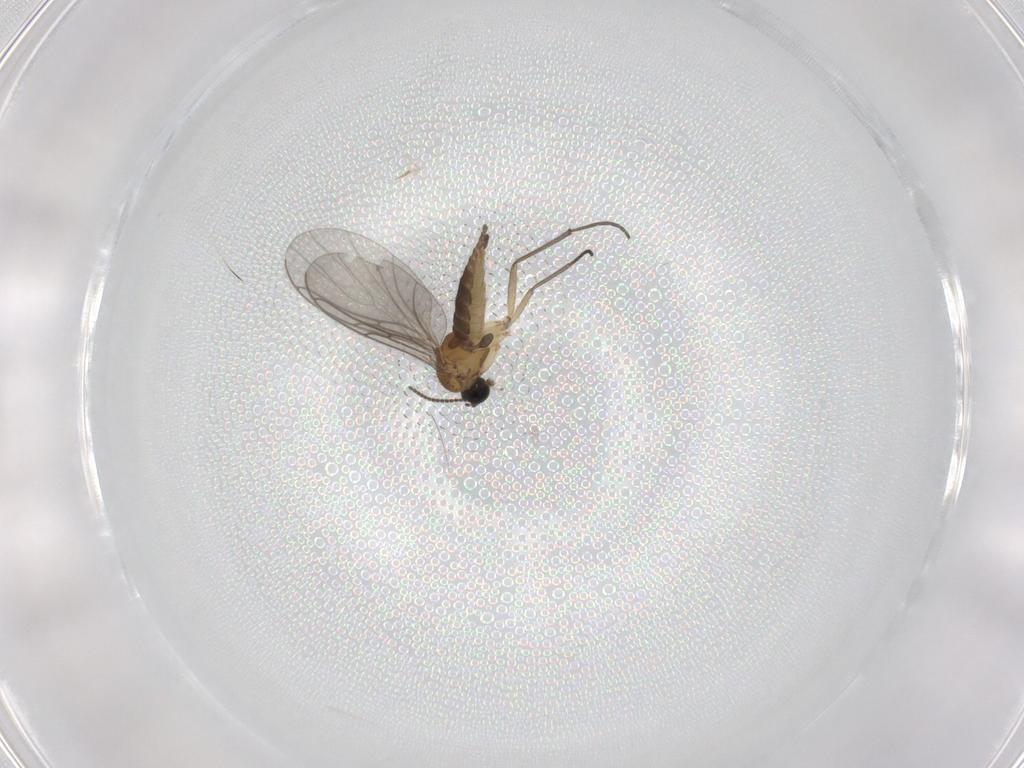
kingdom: Animalia
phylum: Arthropoda
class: Insecta
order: Diptera
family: Sciaridae
